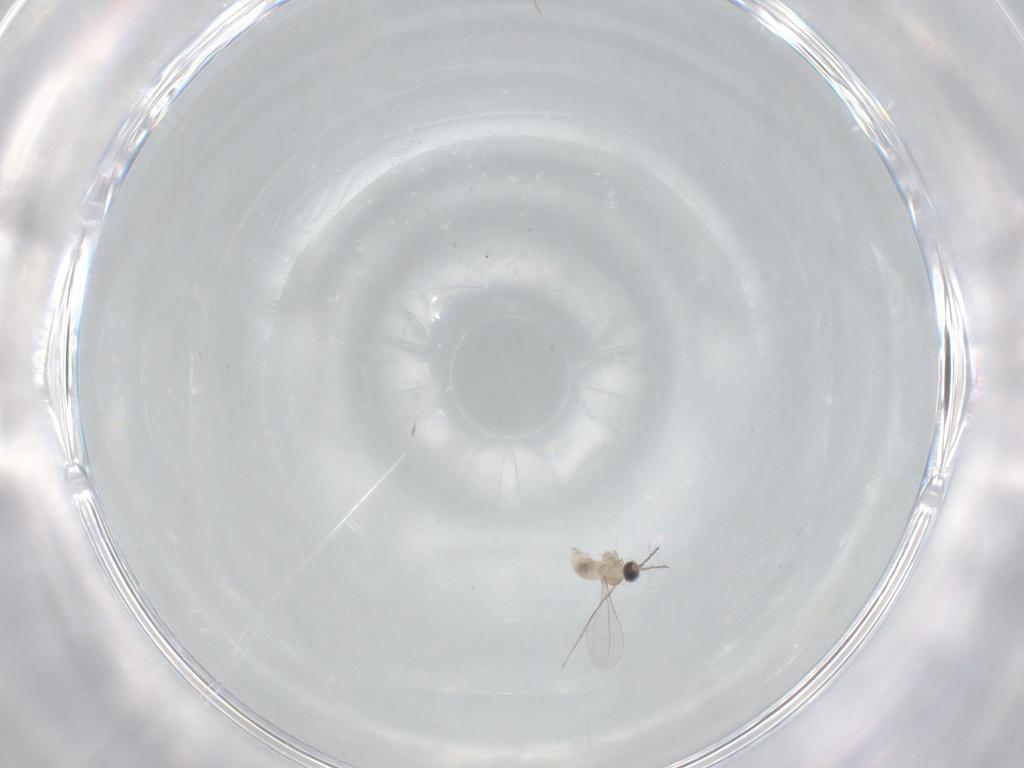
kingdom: Animalia
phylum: Arthropoda
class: Insecta
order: Diptera
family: Cecidomyiidae
